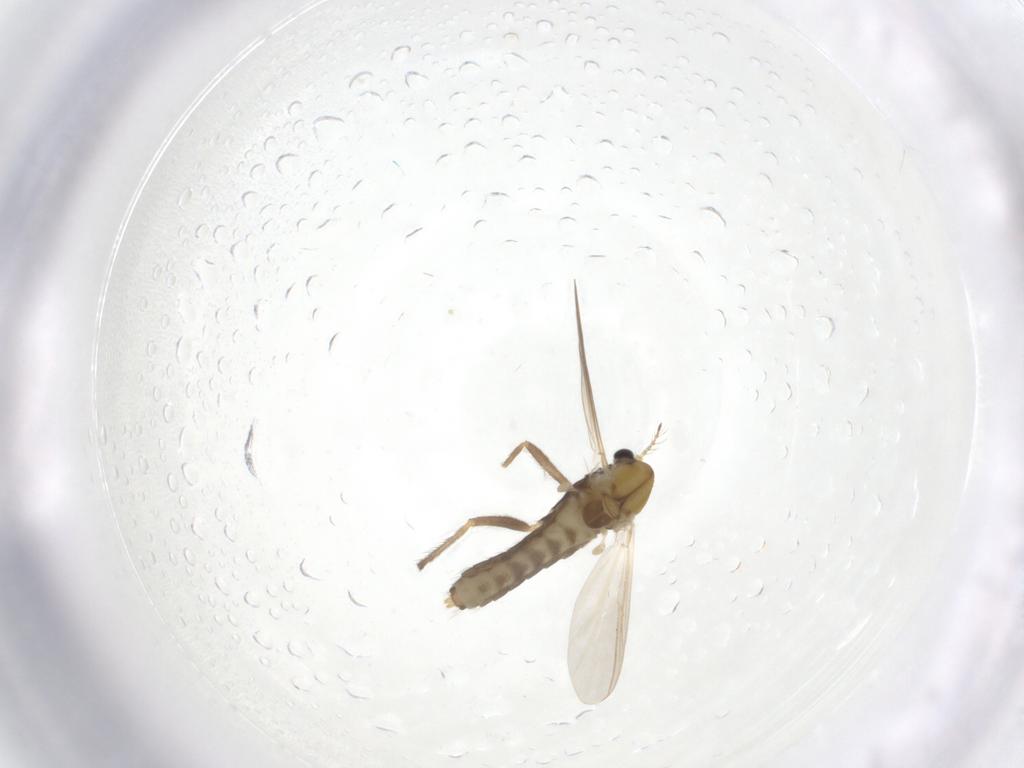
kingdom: Animalia
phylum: Arthropoda
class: Insecta
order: Diptera
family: Chironomidae
